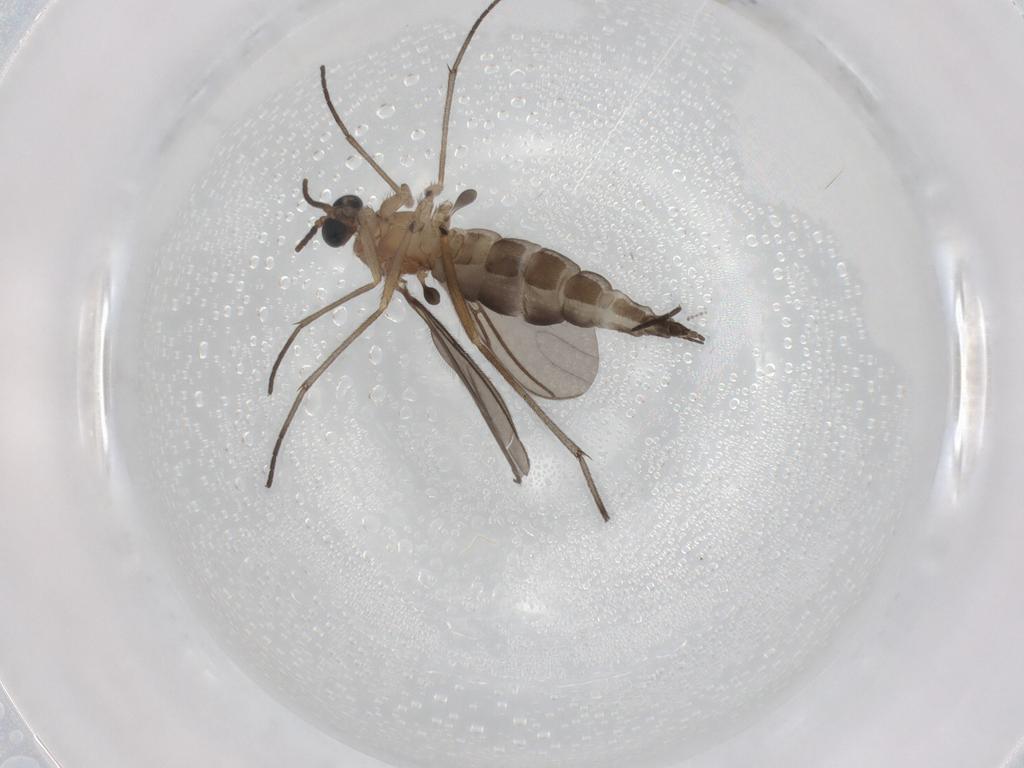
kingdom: Animalia
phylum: Arthropoda
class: Insecta
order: Diptera
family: Sciaridae
